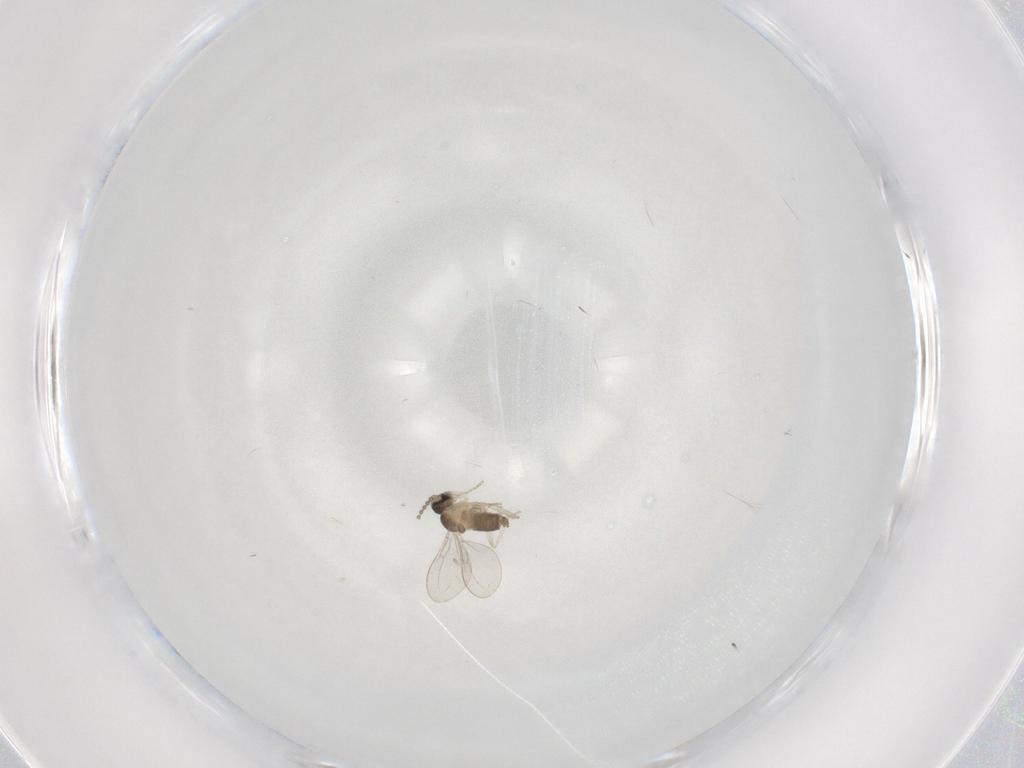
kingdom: Animalia
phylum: Arthropoda
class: Insecta
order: Diptera
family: Cecidomyiidae
